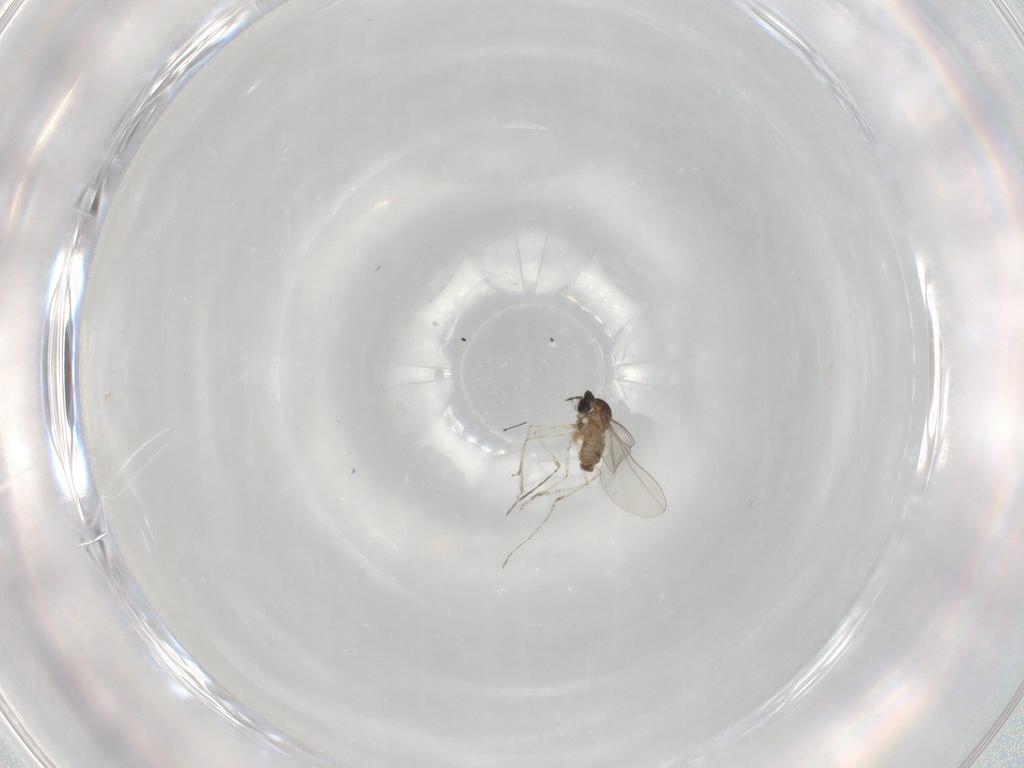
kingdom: Animalia
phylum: Arthropoda
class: Insecta
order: Diptera
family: Cecidomyiidae
